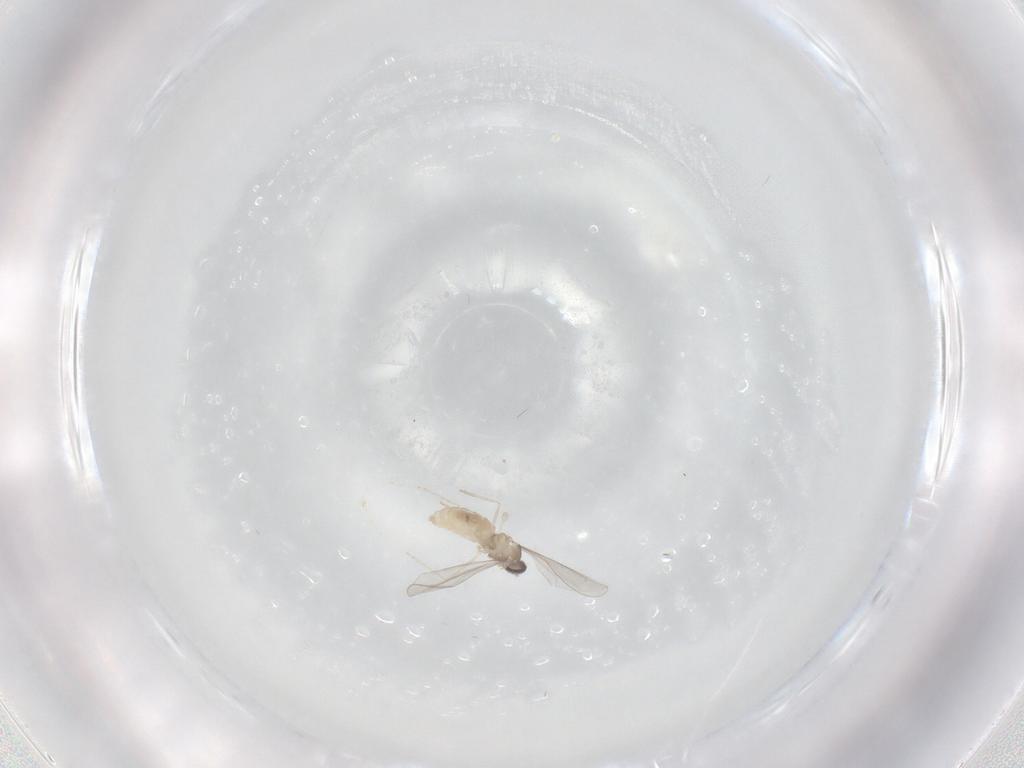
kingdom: Animalia
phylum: Arthropoda
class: Insecta
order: Diptera
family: Cecidomyiidae
